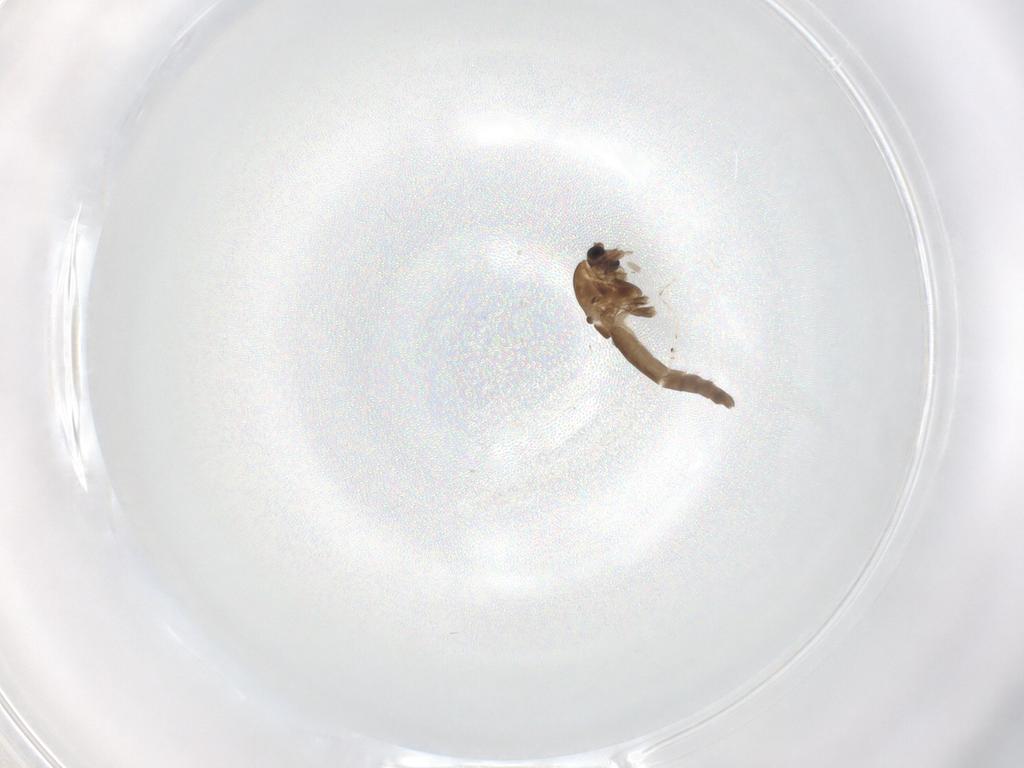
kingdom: Animalia
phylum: Arthropoda
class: Insecta
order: Diptera
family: Chironomidae
